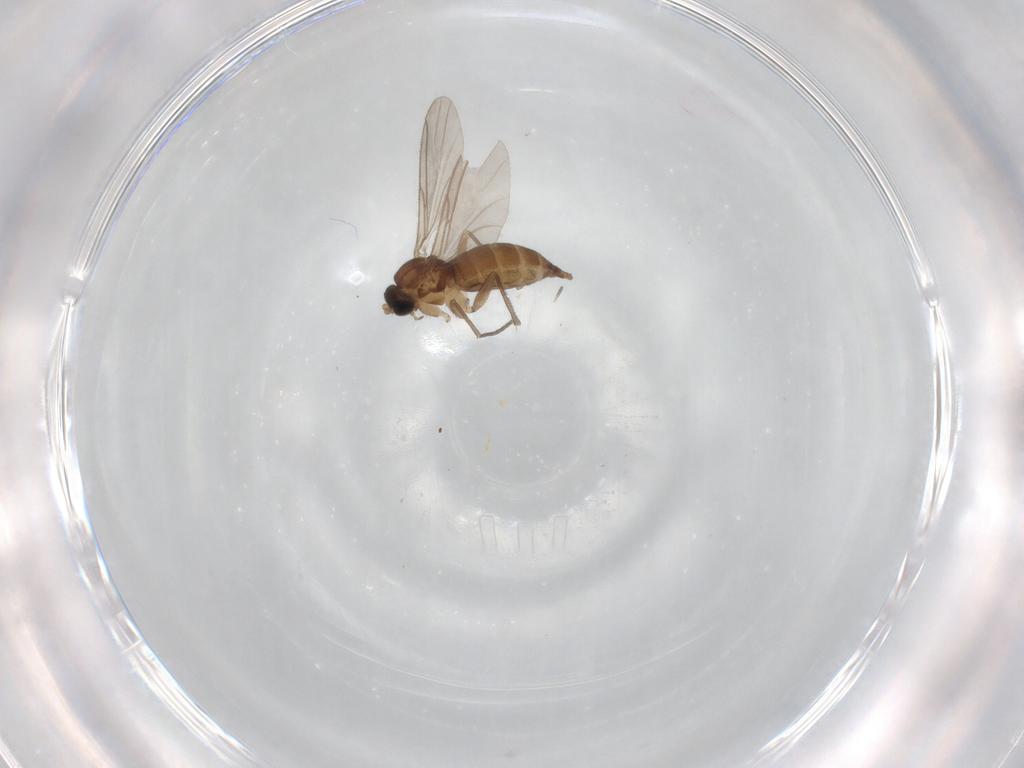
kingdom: Animalia
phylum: Arthropoda
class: Insecta
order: Diptera
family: Sciaridae
